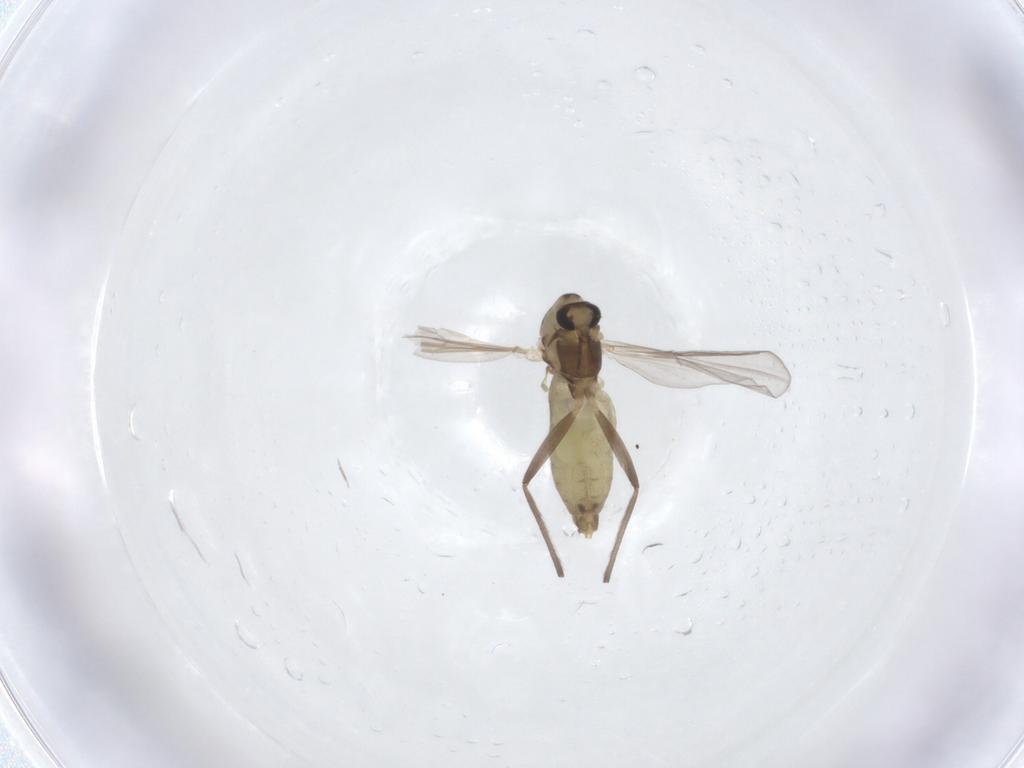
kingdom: Animalia
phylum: Arthropoda
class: Insecta
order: Diptera
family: Chironomidae
